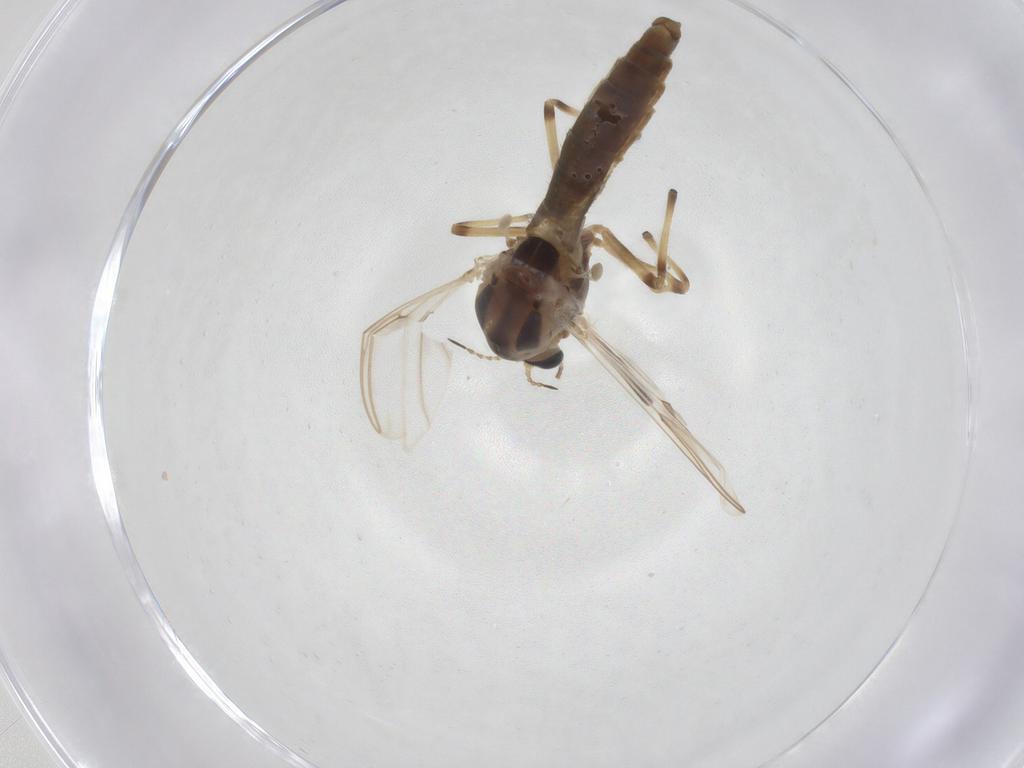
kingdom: Animalia
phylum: Arthropoda
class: Insecta
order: Diptera
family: Chironomidae
